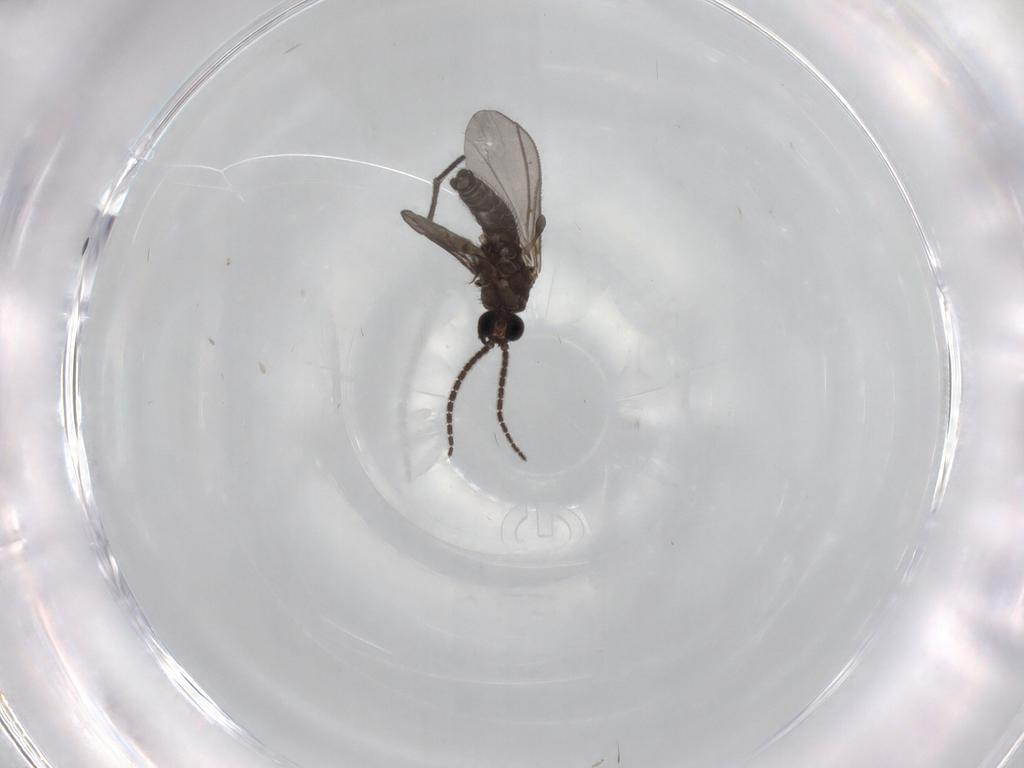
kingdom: Animalia
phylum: Arthropoda
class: Insecta
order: Diptera
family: Ceratopogonidae
